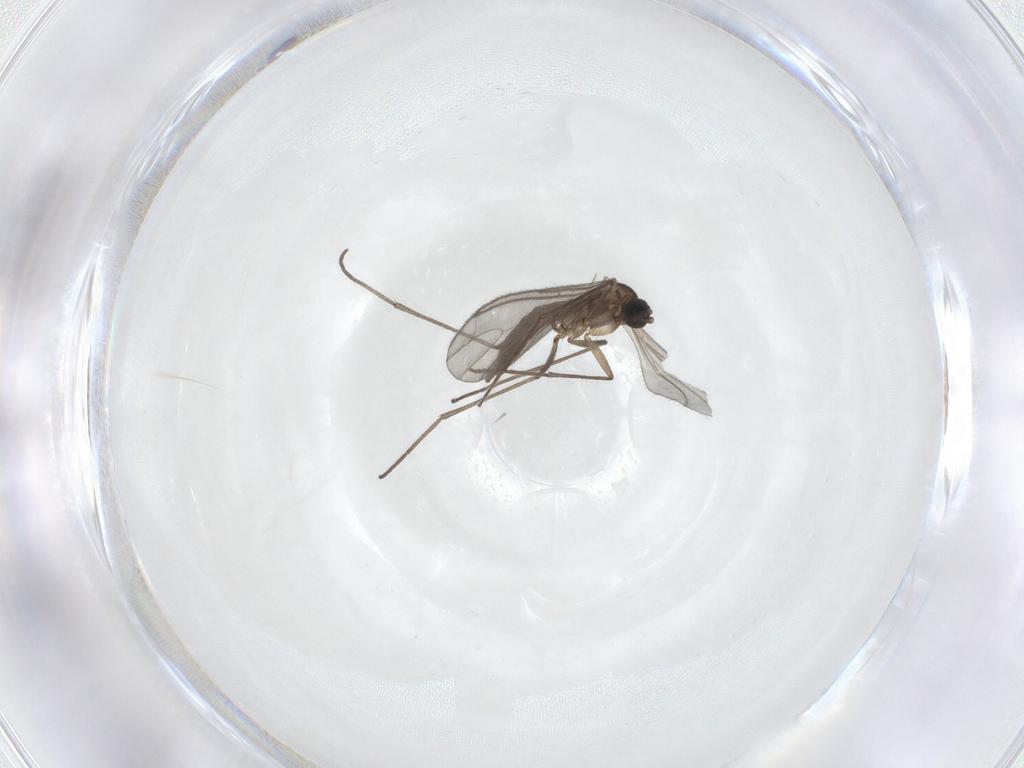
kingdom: Animalia
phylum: Arthropoda
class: Insecta
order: Diptera
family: Sciaridae
